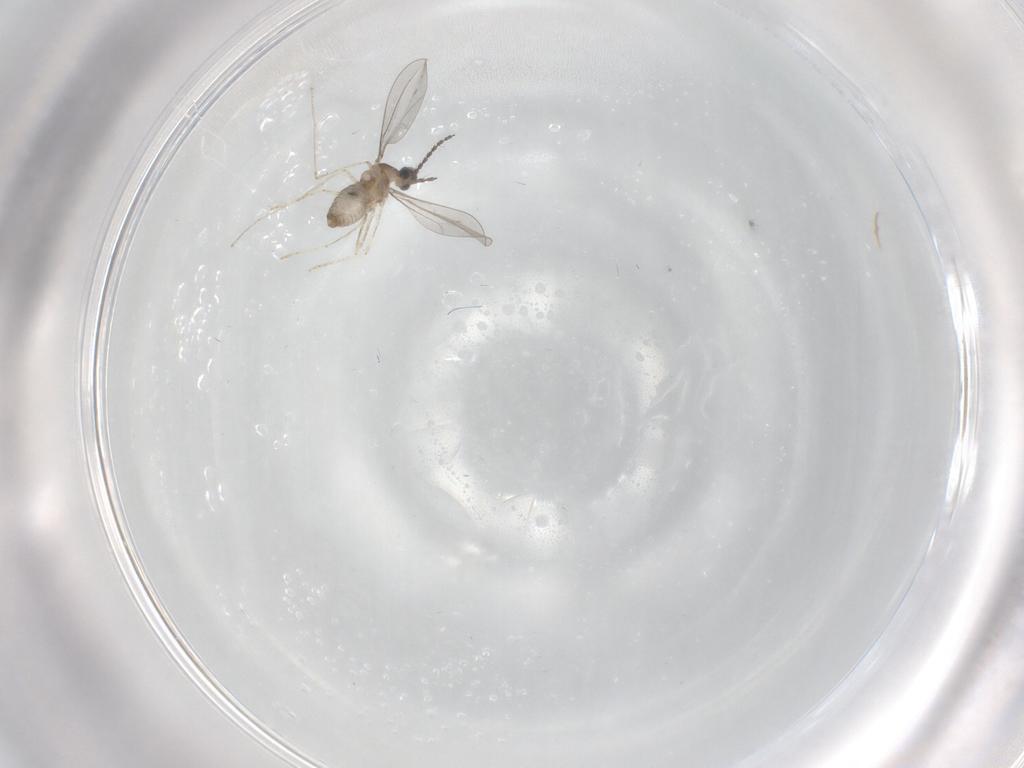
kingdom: Animalia
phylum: Arthropoda
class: Insecta
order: Diptera
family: Cecidomyiidae
